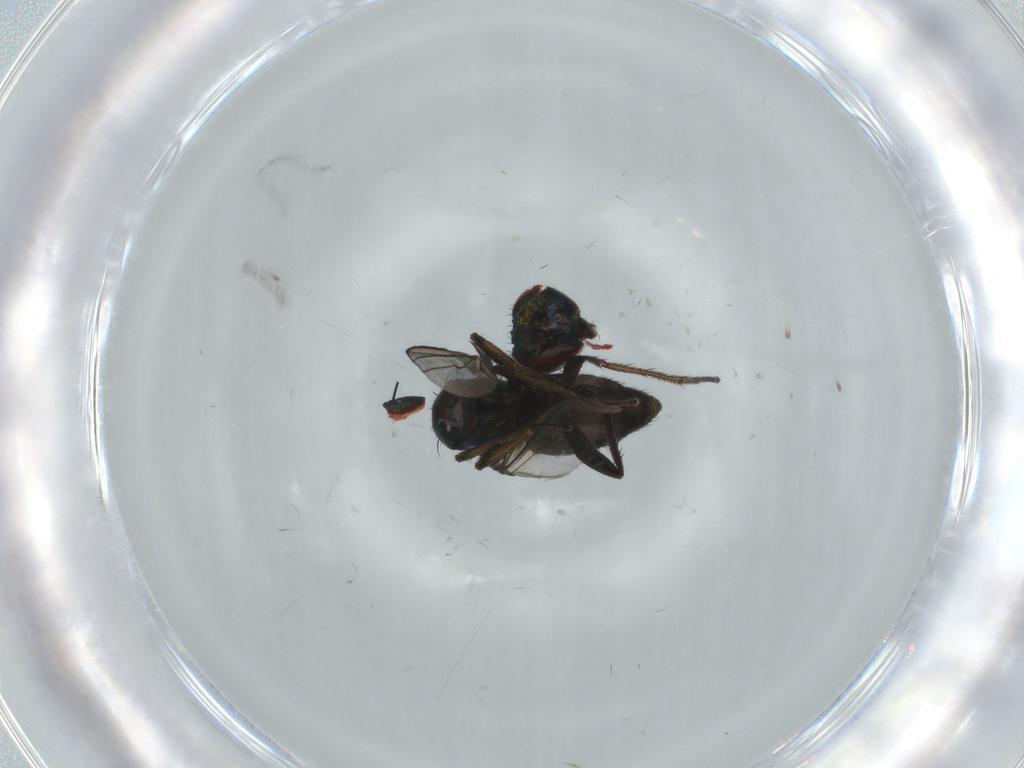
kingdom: Animalia
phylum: Arthropoda
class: Insecta
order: Diptera
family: Dolichopodidae
